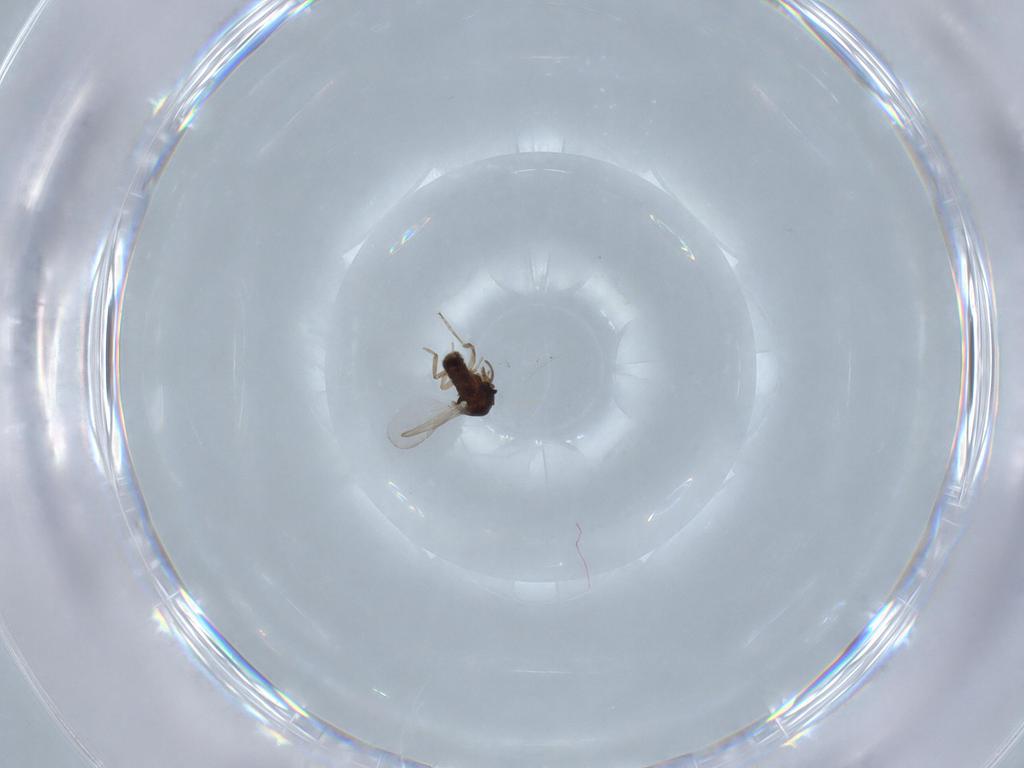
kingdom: Animalia
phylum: Arthropoda
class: Insecta
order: Diptera
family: Ceratopogonidae
